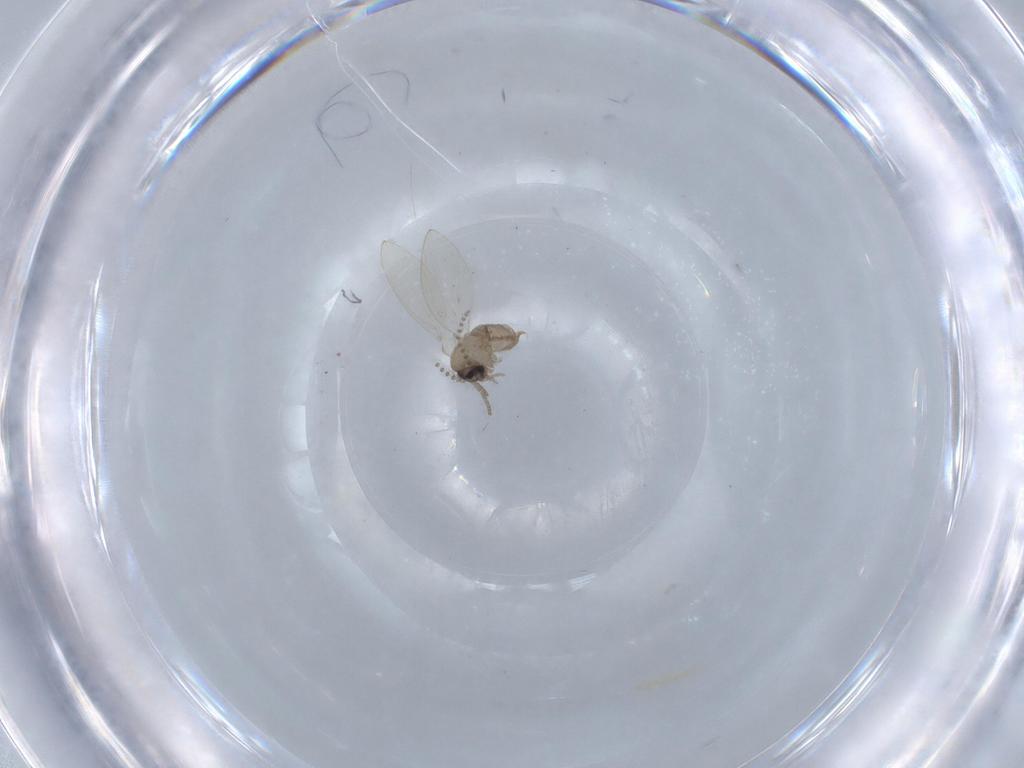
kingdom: Animalia
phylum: Arthropoda
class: Insecta
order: Diptera
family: Psychodidae
